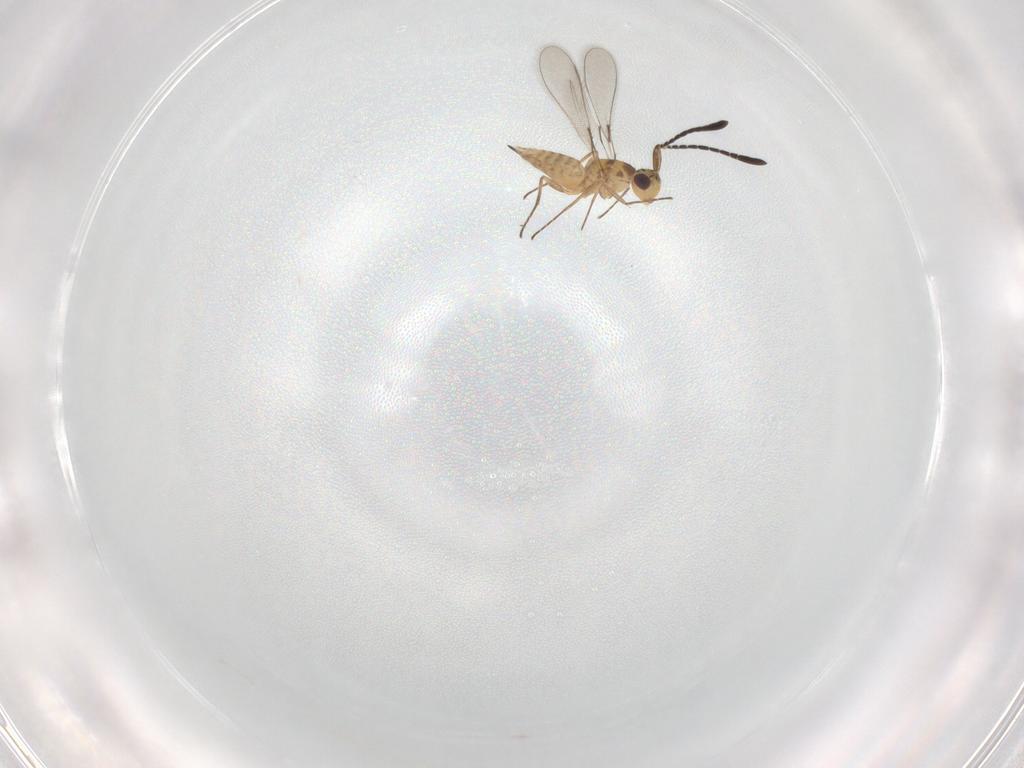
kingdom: Animalia
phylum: Arthropoda
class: Insecta
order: Hymenoptera
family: Mymaridae
